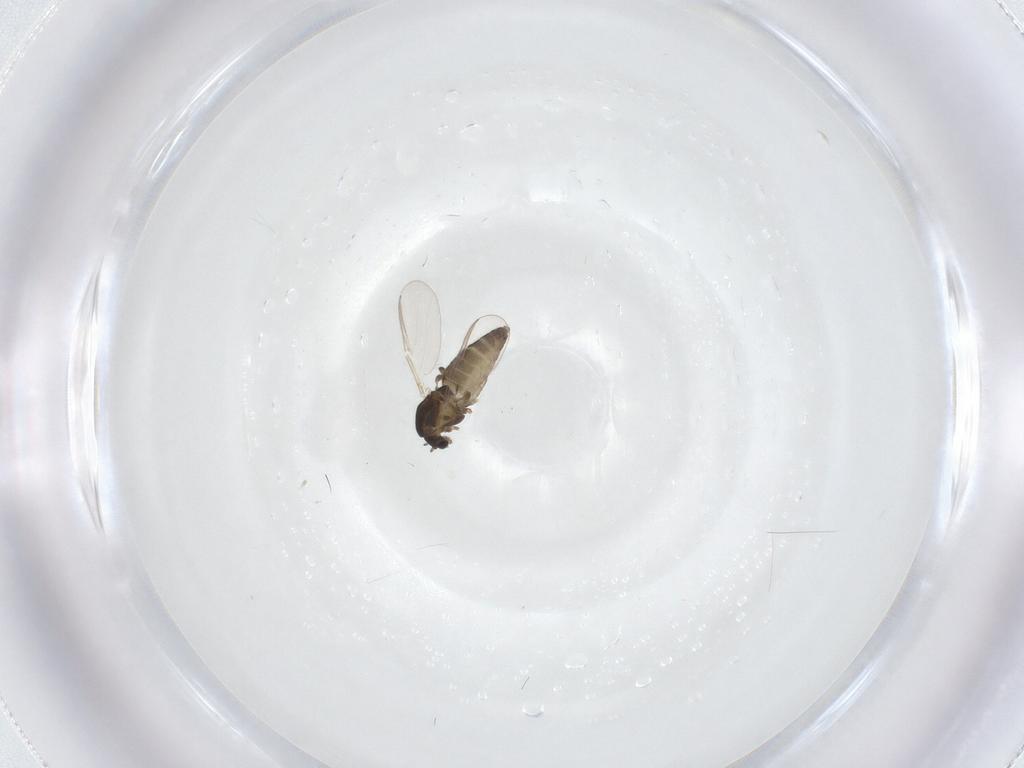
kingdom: Animalia
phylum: Arthropoda
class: Insecta
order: Diptera
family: Chironomidae
